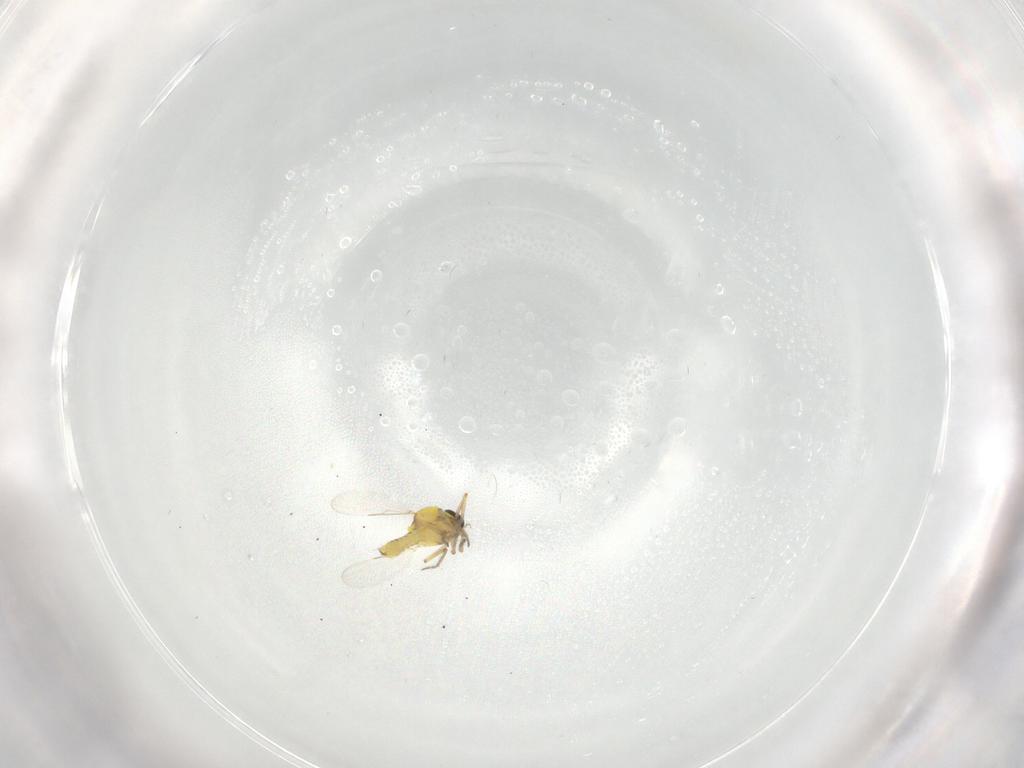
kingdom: Animalia
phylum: Arthropoda
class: Insecta
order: Diptera
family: Ceratopogonidae
